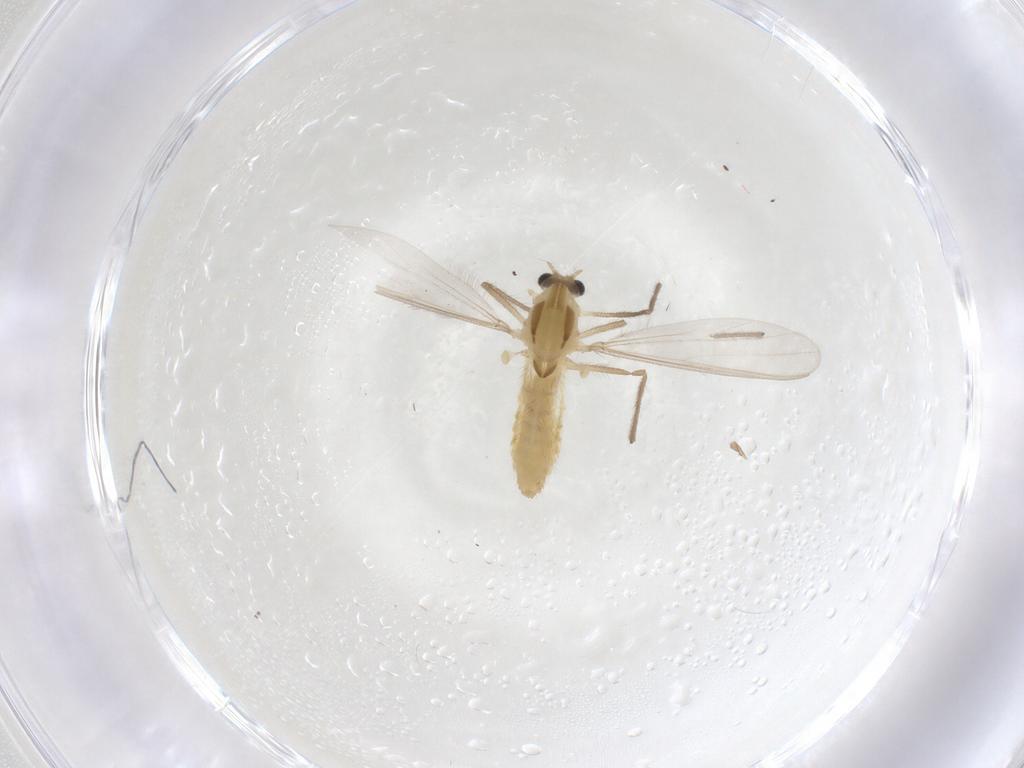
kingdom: Animalia
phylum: Arthropoda
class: Insecta
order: Diptera
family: Chironomidae
